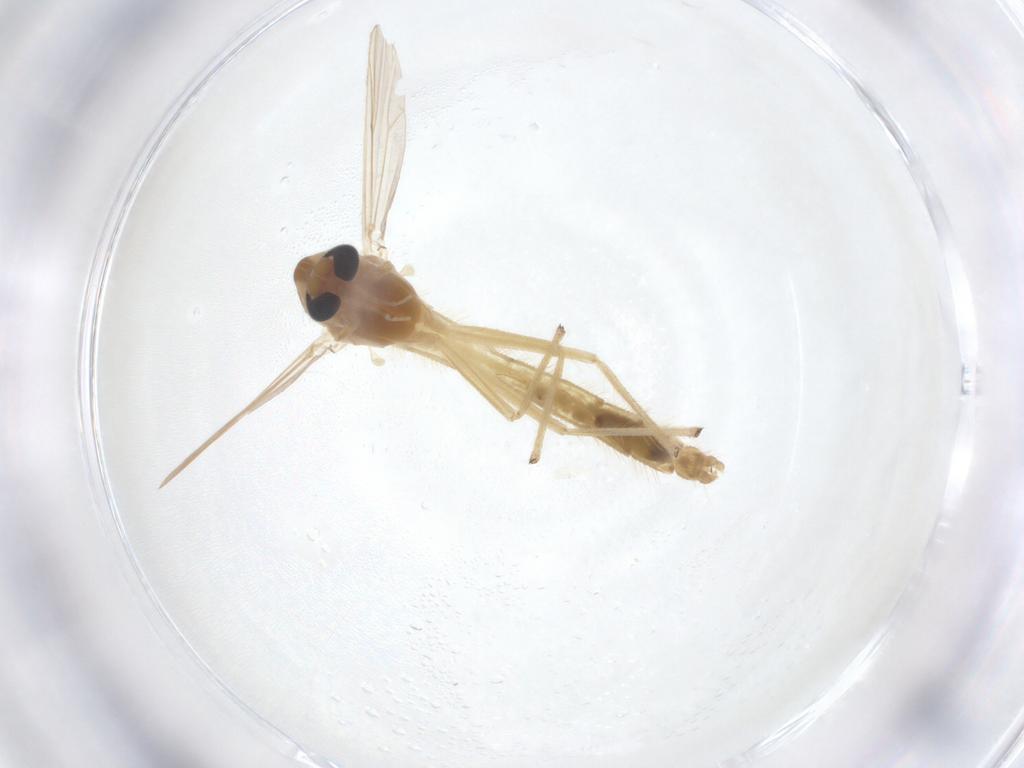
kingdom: Animalia
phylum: Arthropoda
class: Insecta
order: Diptera
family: Chironomidae
